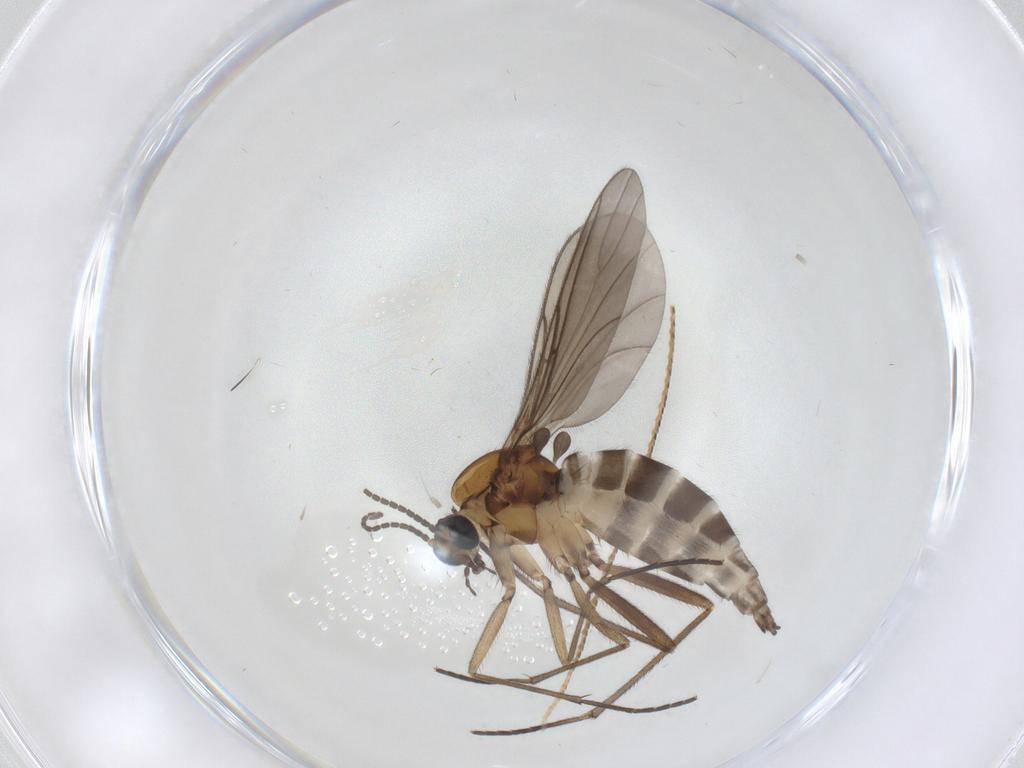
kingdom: Animalia
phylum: Arthropoda
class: Insecta
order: Diptera
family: Sciaridae
